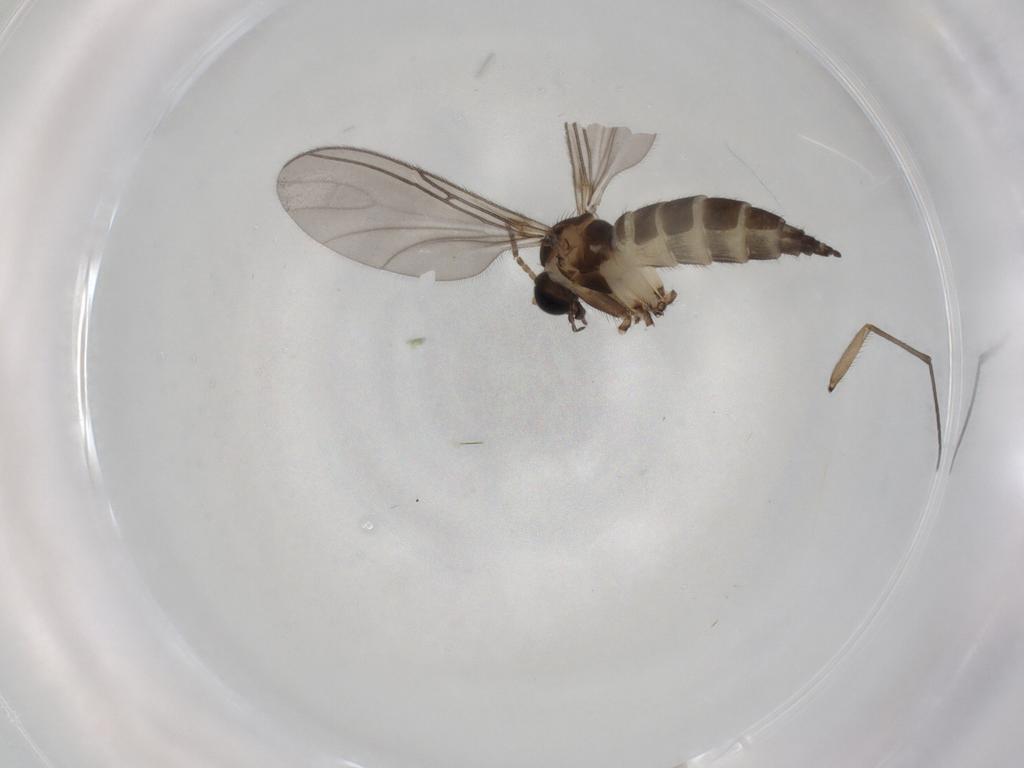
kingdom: Animalia
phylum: Arthropoda
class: Insecta
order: Diptera
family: Sciaridae
